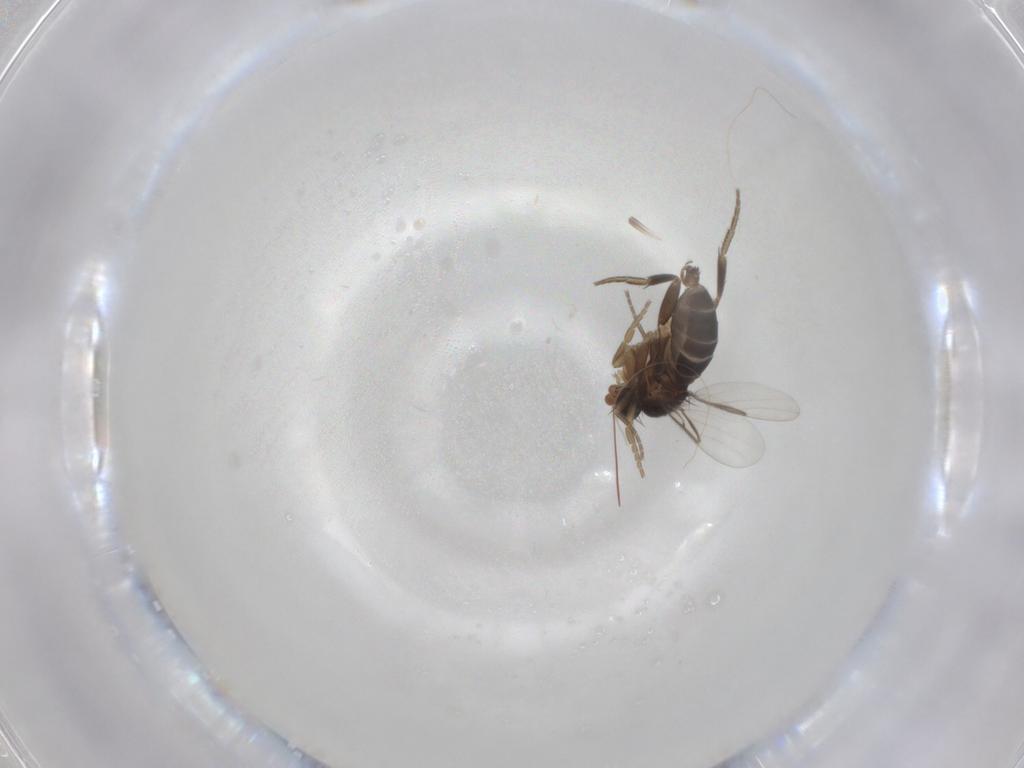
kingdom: Animalia
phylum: Arthropoda
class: Insecta
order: Diptera
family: Phoridae
